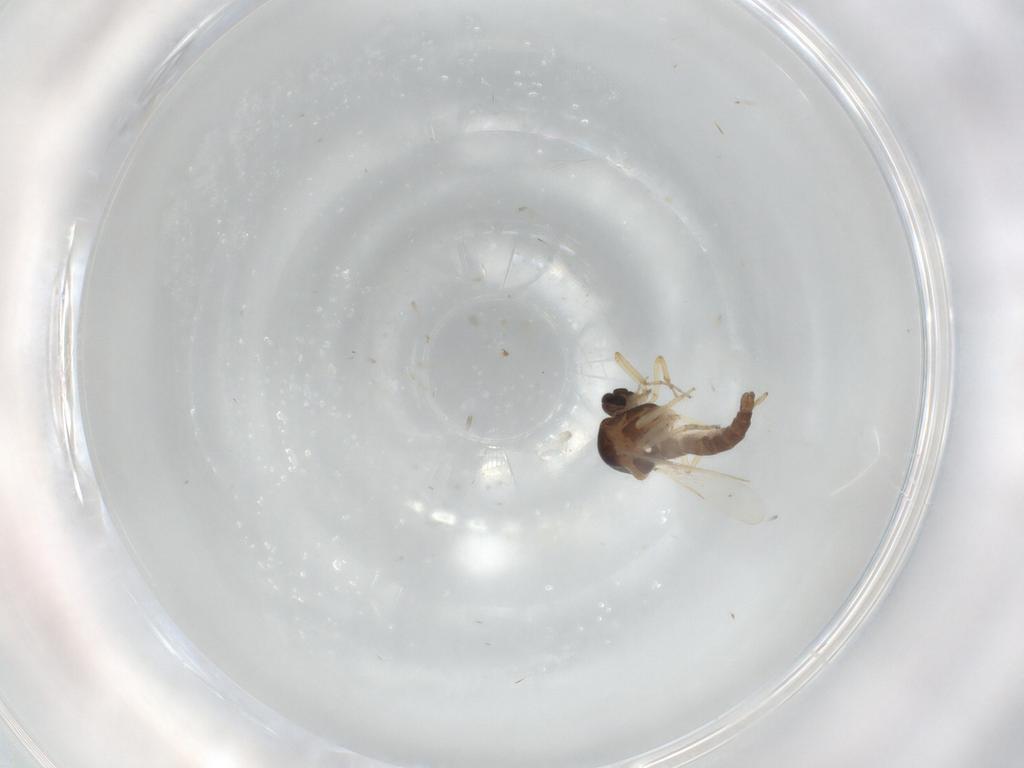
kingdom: Animalia
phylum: Arthropoda
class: Insecta
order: Diptera
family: Ceratopogonidae
